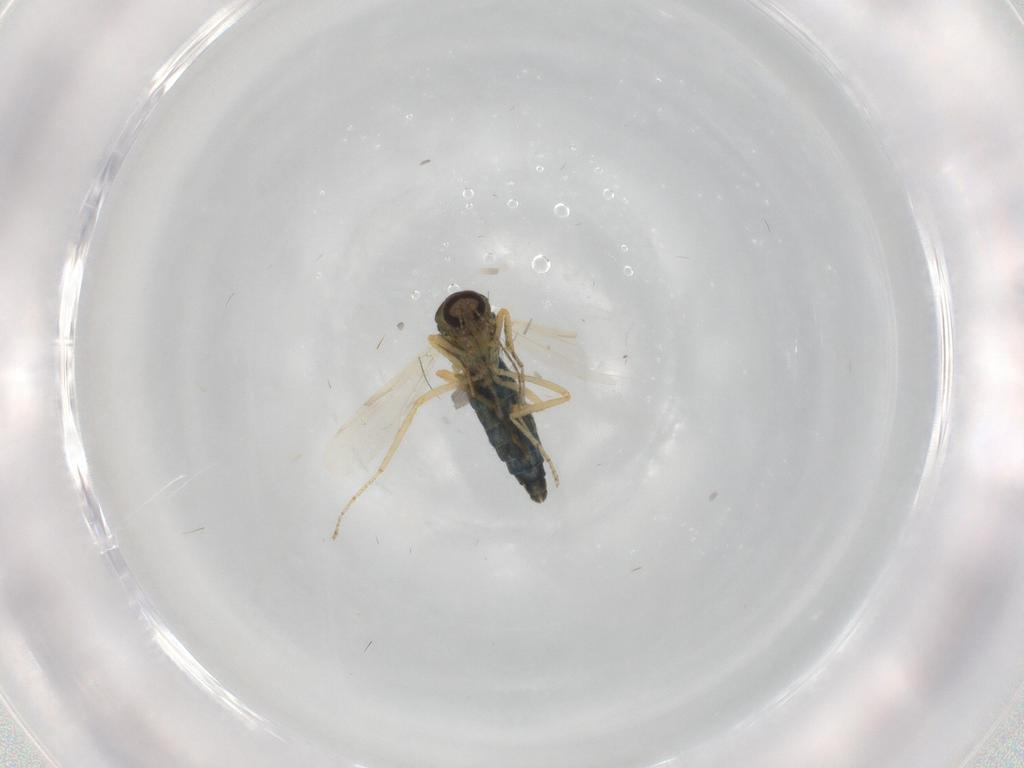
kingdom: Animalia
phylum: Arthropoda
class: Insecta
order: Diptera
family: Ceratopogonidae
